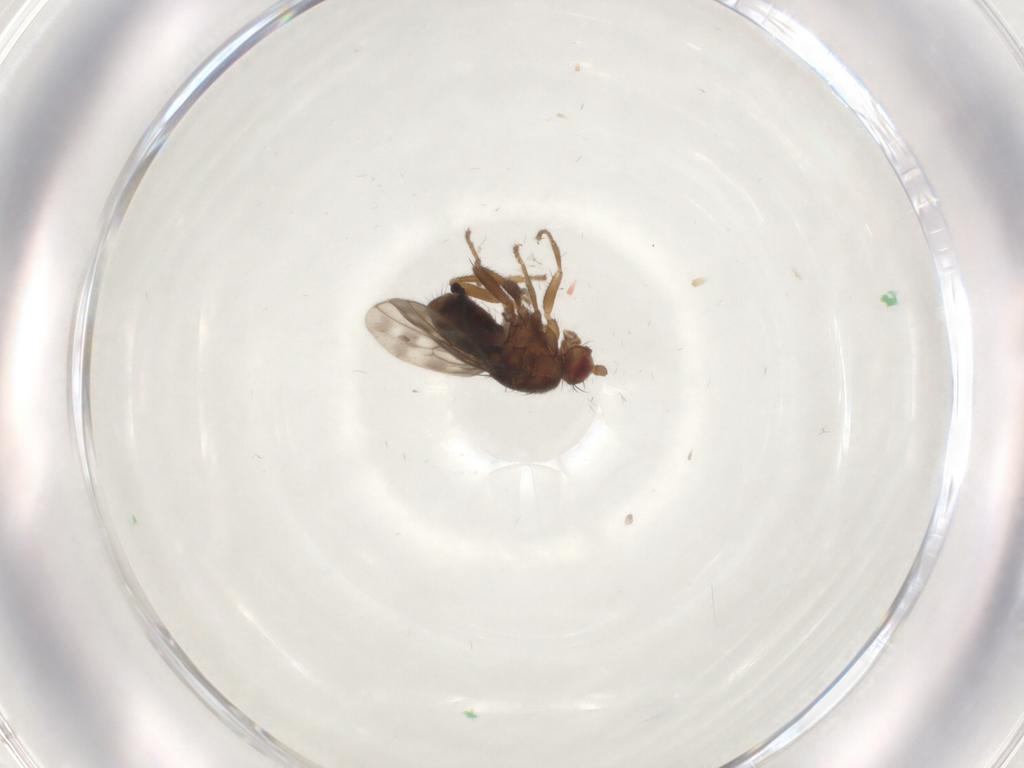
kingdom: Animalia
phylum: Arthropoda
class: Insecta
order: Diptera
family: Sphaeroceridae
